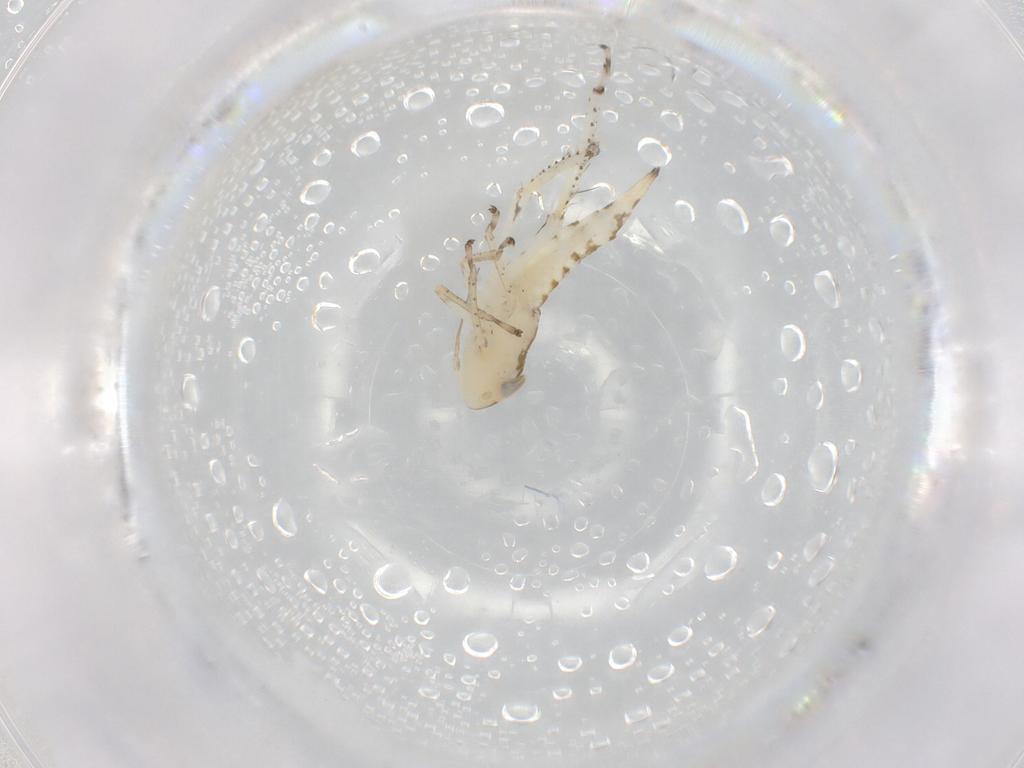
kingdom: Animalia
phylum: Arthropoda
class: Insecta
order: Hemiptera
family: Cicadellidae
